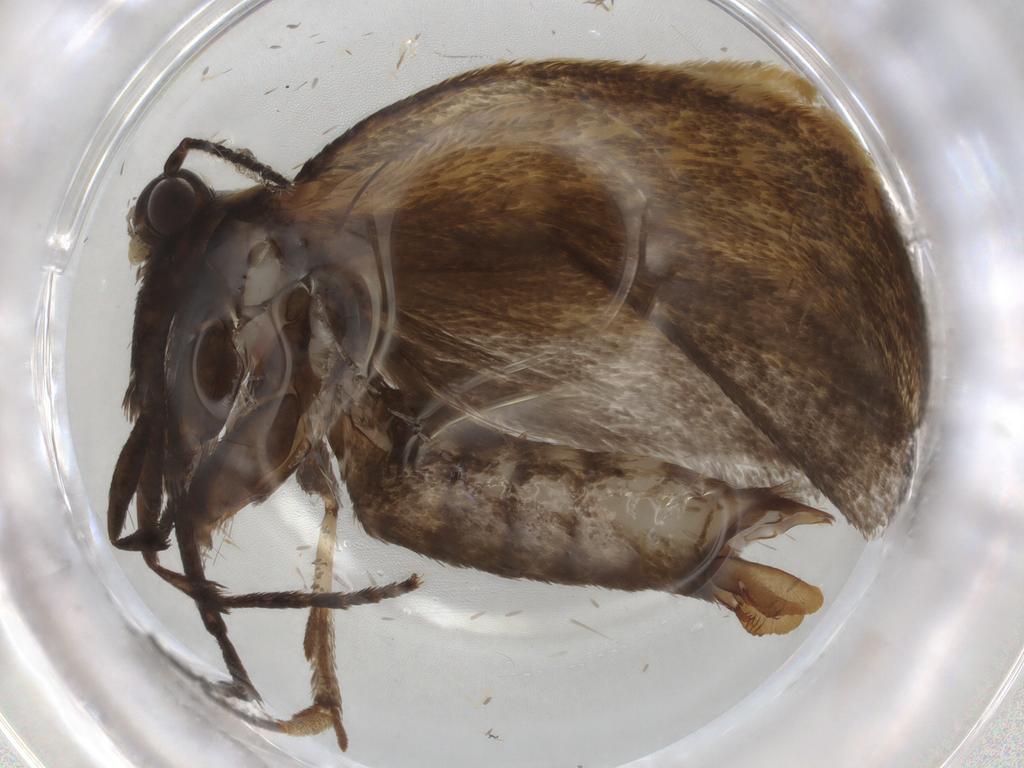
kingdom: Animalia
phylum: Arthropoda
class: Insecta
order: Lepidoptera
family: Crambidae
